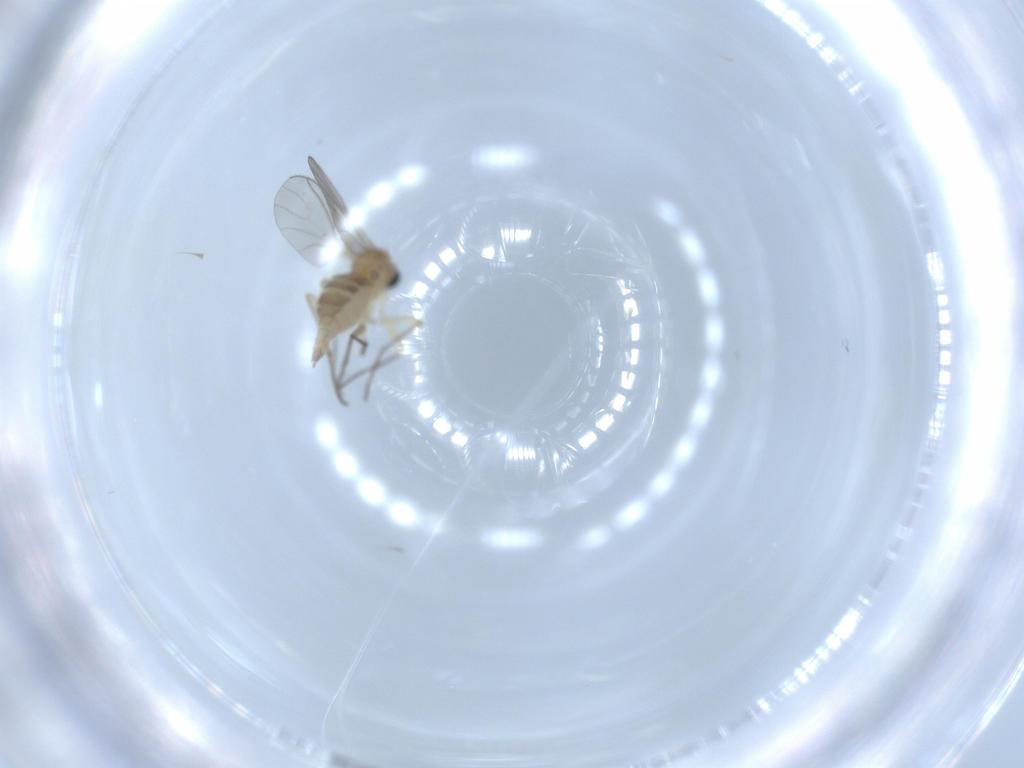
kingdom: Animalia
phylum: Arthropoda
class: Insecta
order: Diptera
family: Sciaridae
